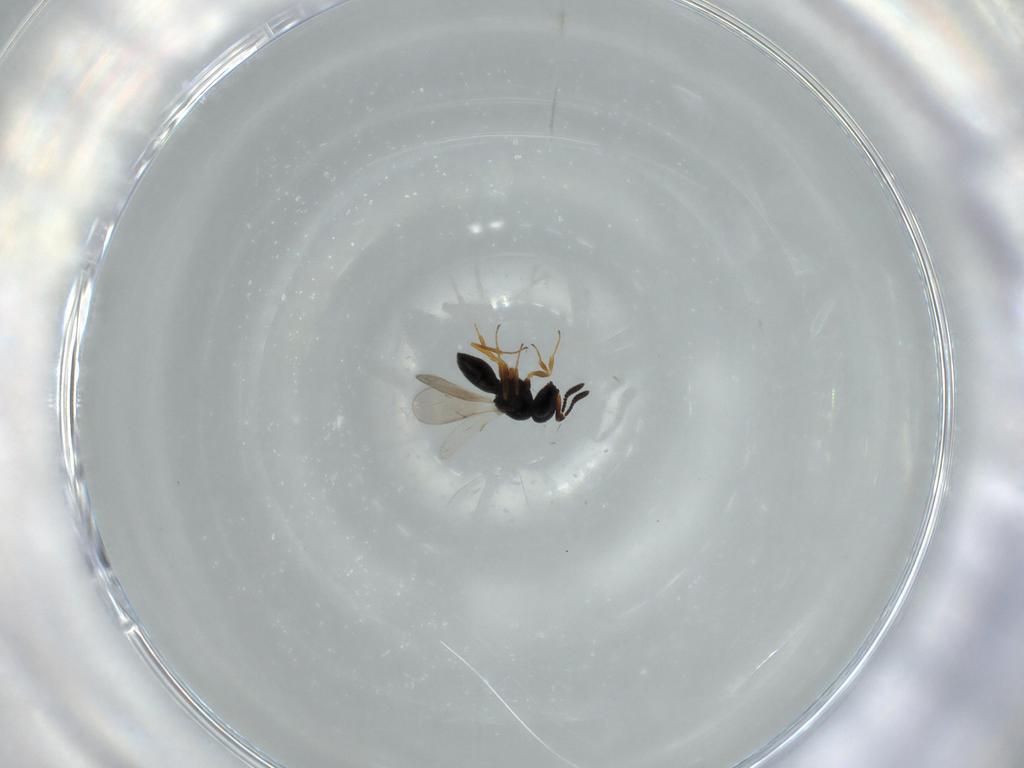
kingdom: Animalia
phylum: Arthropoda
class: Insecta
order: Hymenoptera
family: Scelionidae
